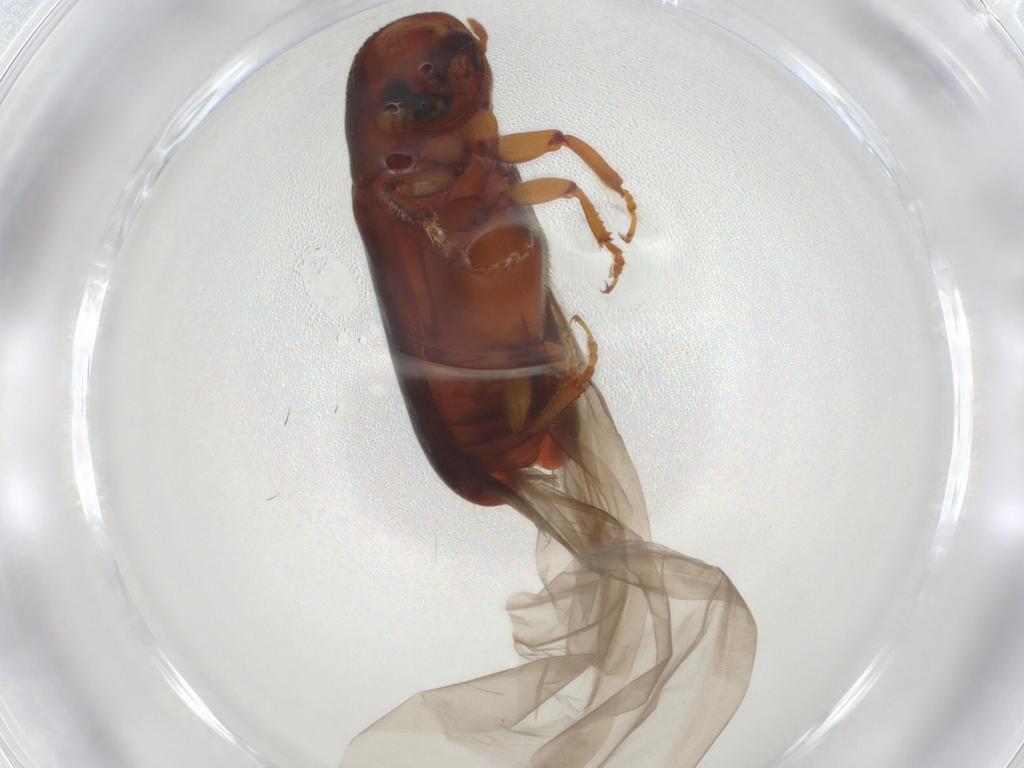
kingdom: Animalia
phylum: Arthropoda
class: Insecta
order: Coleoptera
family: Curculionidae
